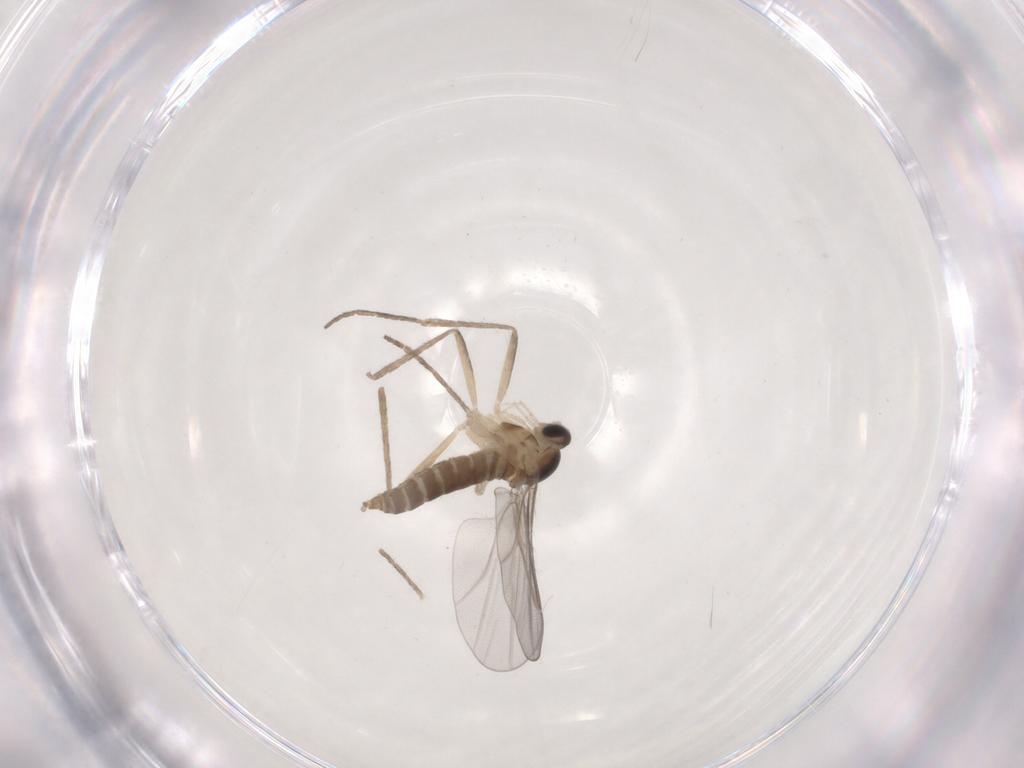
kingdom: Animalia
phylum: Arthropoda
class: Insecta
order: Diptera
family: Cecidomyiidae
